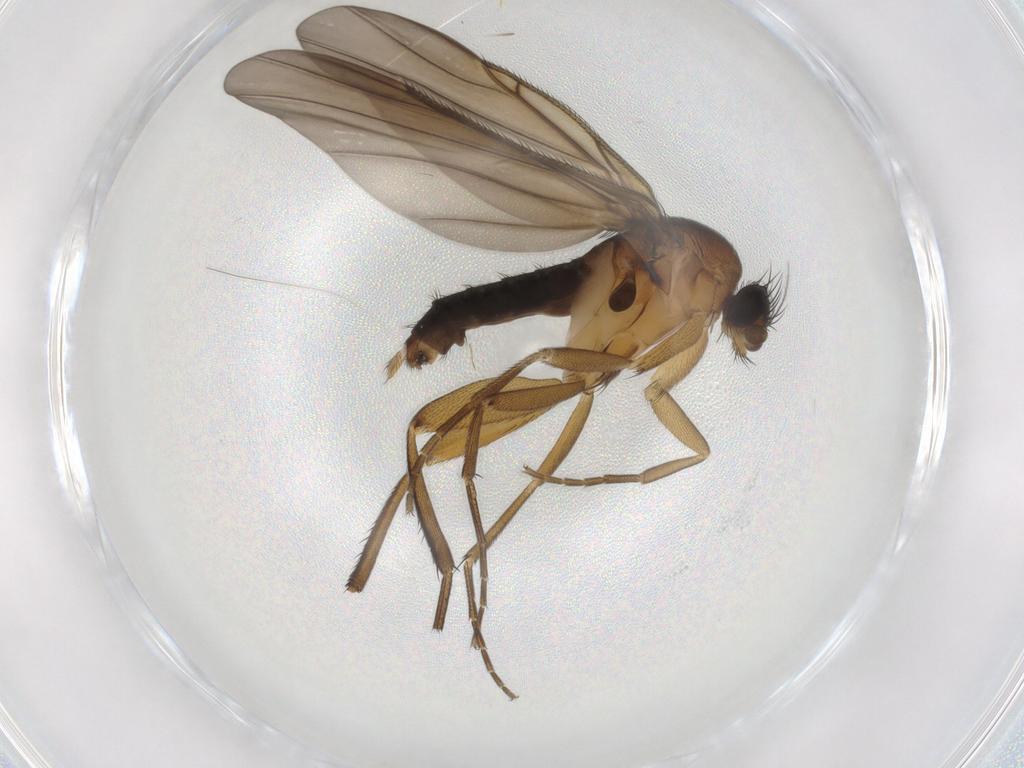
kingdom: Animalia
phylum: Arthropoda
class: Insecta
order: Diptera
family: Phoridae
